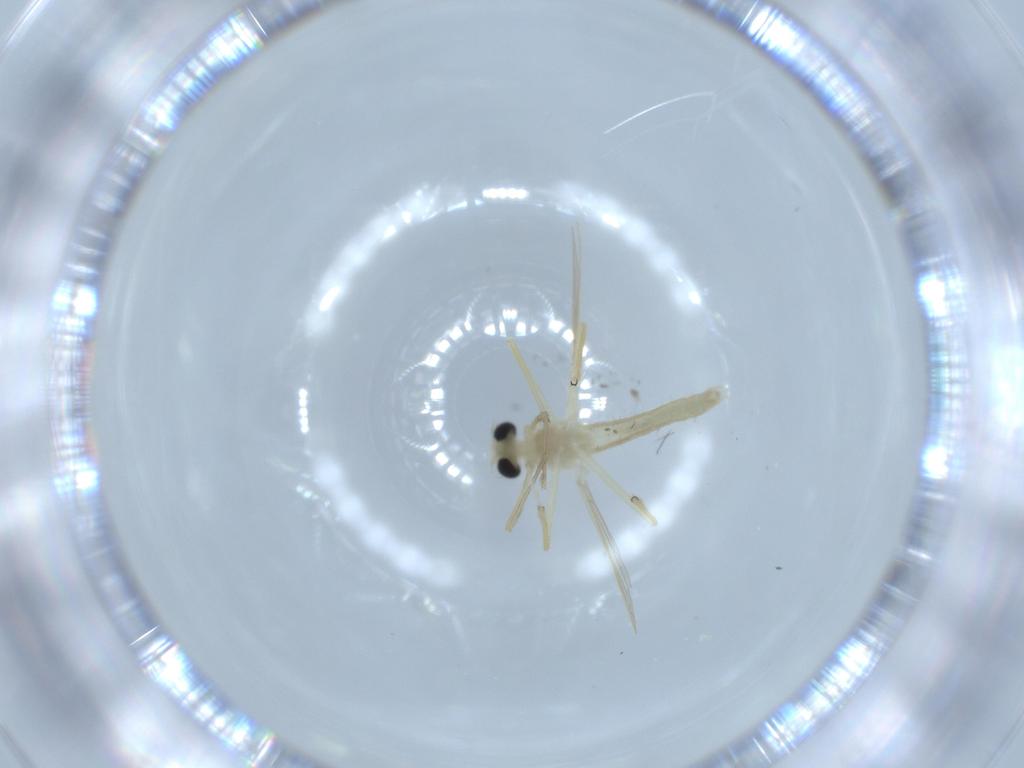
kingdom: Animalia
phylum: Arthropoda
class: Insecta
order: Diptera
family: Chironomidae
